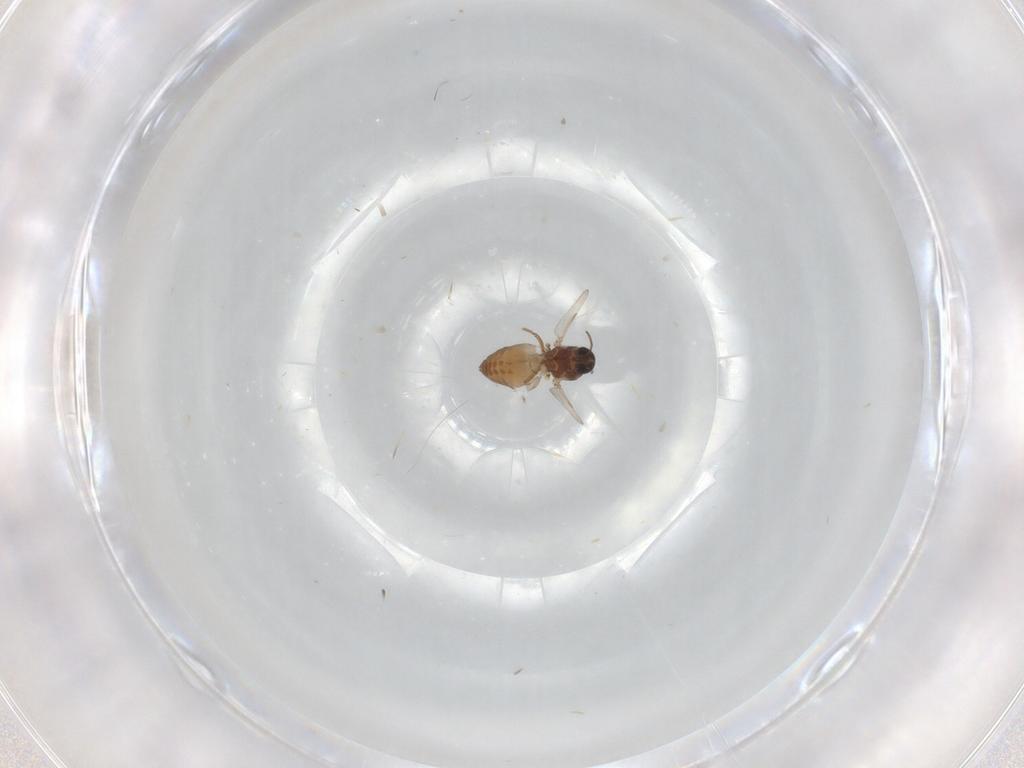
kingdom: Animalia
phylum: Arthropoda
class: Insecta
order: Diptera
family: Ceratopogonidae
